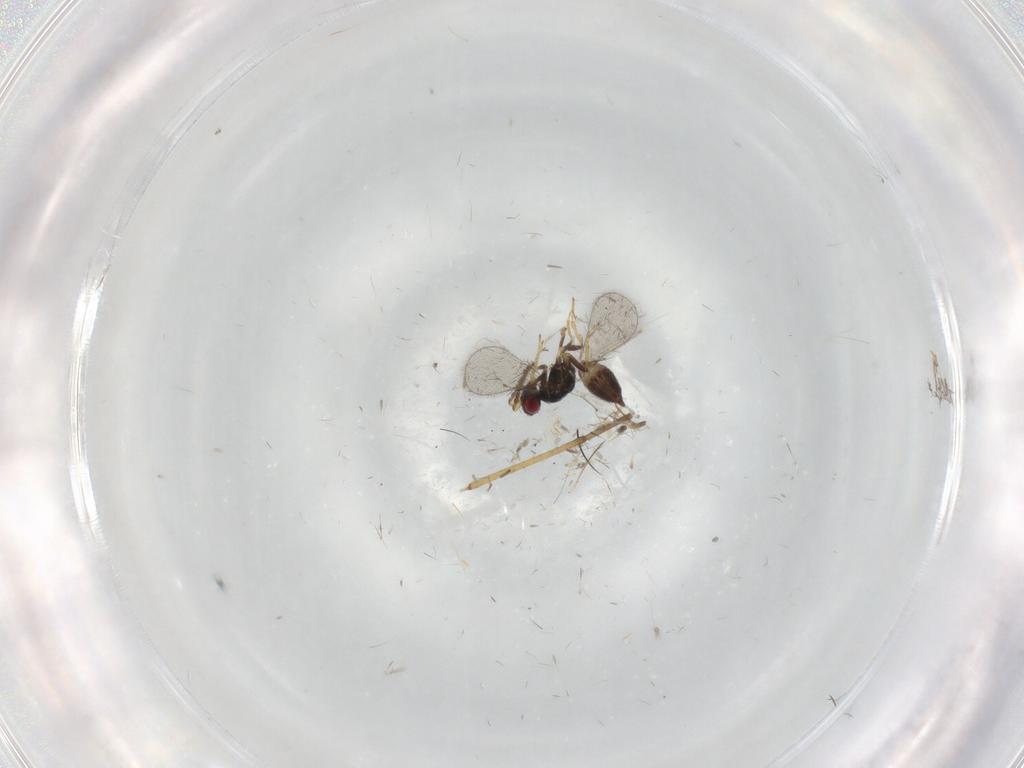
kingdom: Animalia
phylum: Arthropoda
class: Insecta
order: Hymenoptera
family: Eulophidae
